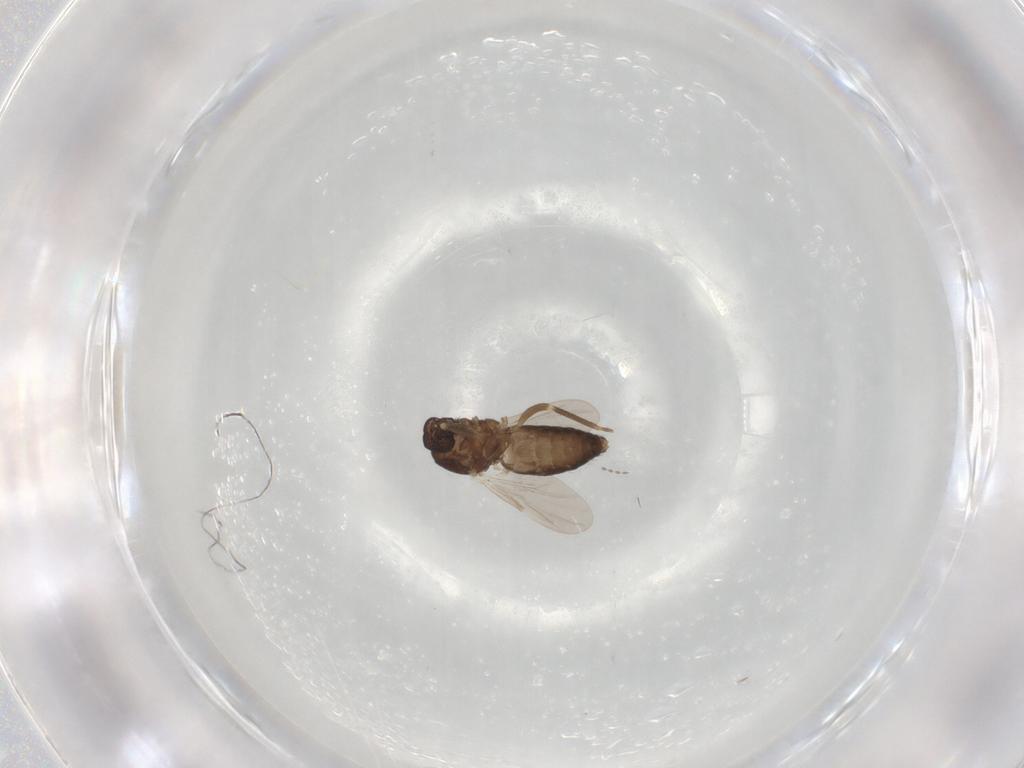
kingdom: Animalia
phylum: Arthropoda
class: Insecta
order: Diptera
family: Ceratopogonidae
